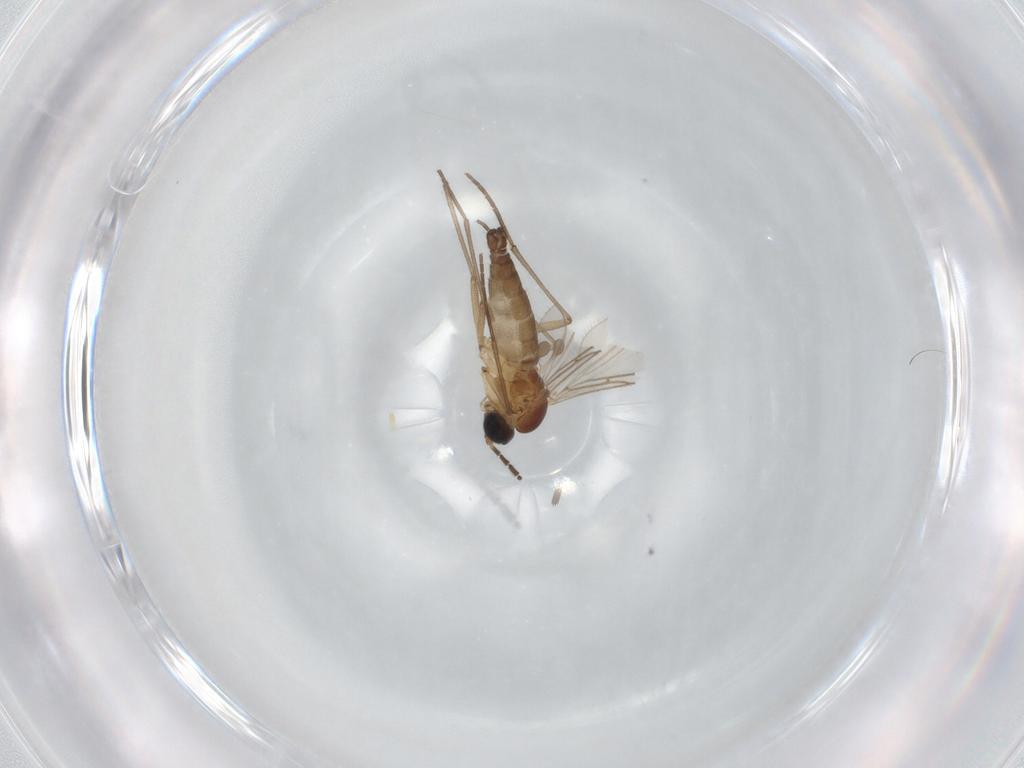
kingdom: Animalia
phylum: Arthropoda
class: Insecta
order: Diptera
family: Sciaridae
